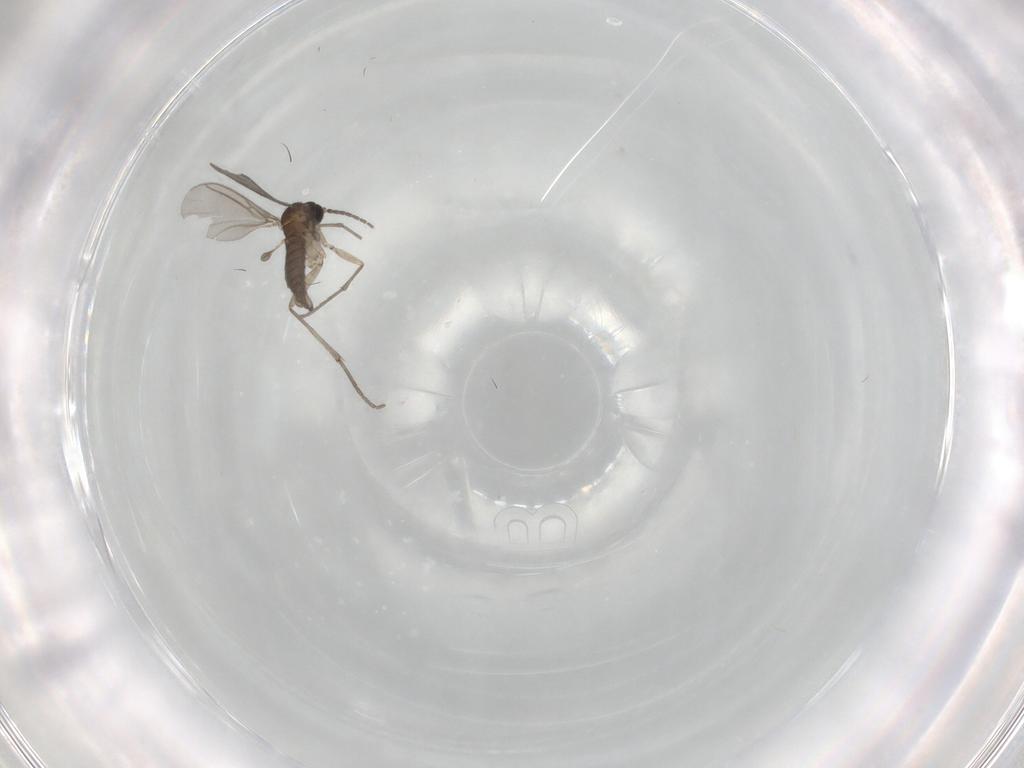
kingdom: Animalia
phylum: Arthropoda
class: Insecta
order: Diptera
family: Sciaridae
